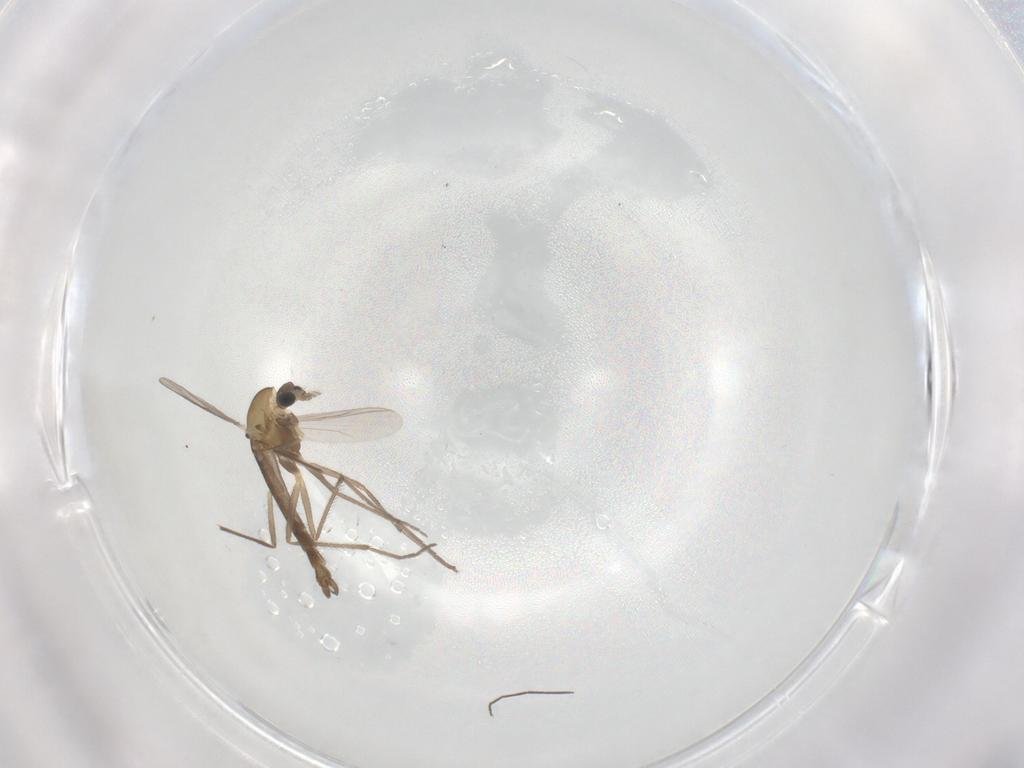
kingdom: Animalia
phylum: Arthropoda
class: Insecta
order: Diptera
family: Chironomidae
